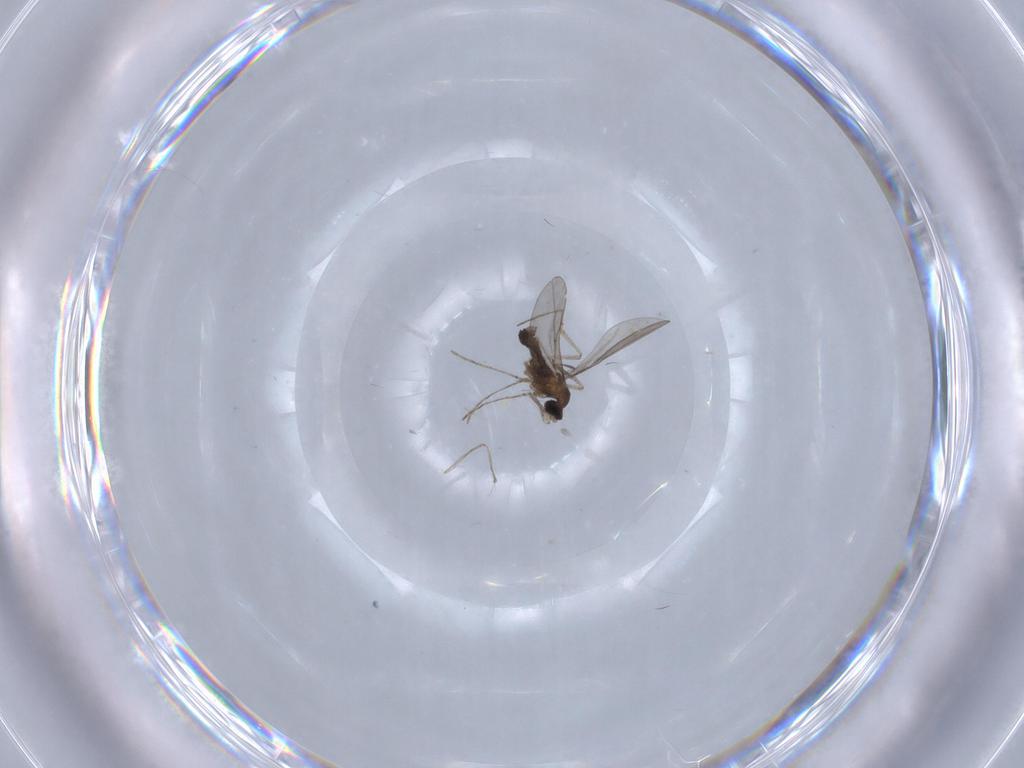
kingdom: Animalia
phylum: Arthropoda
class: Insecta
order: Diptera
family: Cecidomyiidae
